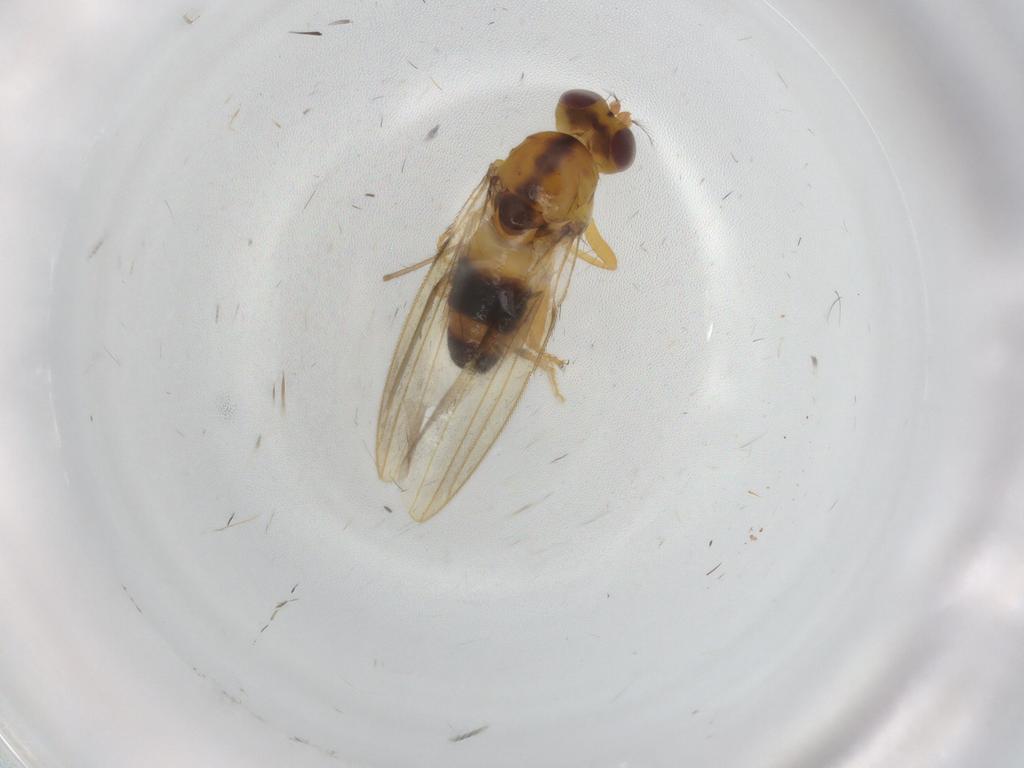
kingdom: Animalia
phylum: Arthropoda
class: Insecta
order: Diptera
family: Periscelididae
